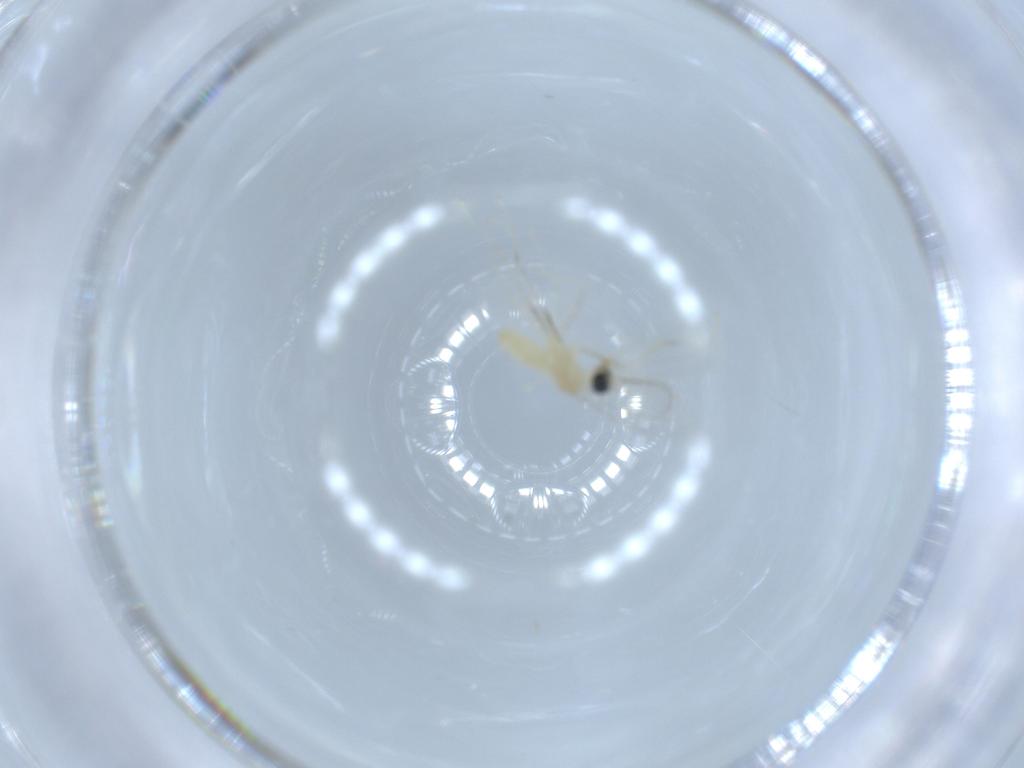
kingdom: Animalia
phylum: Arthropoda
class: Insecta
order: Diptera
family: Cecidomyiidae
